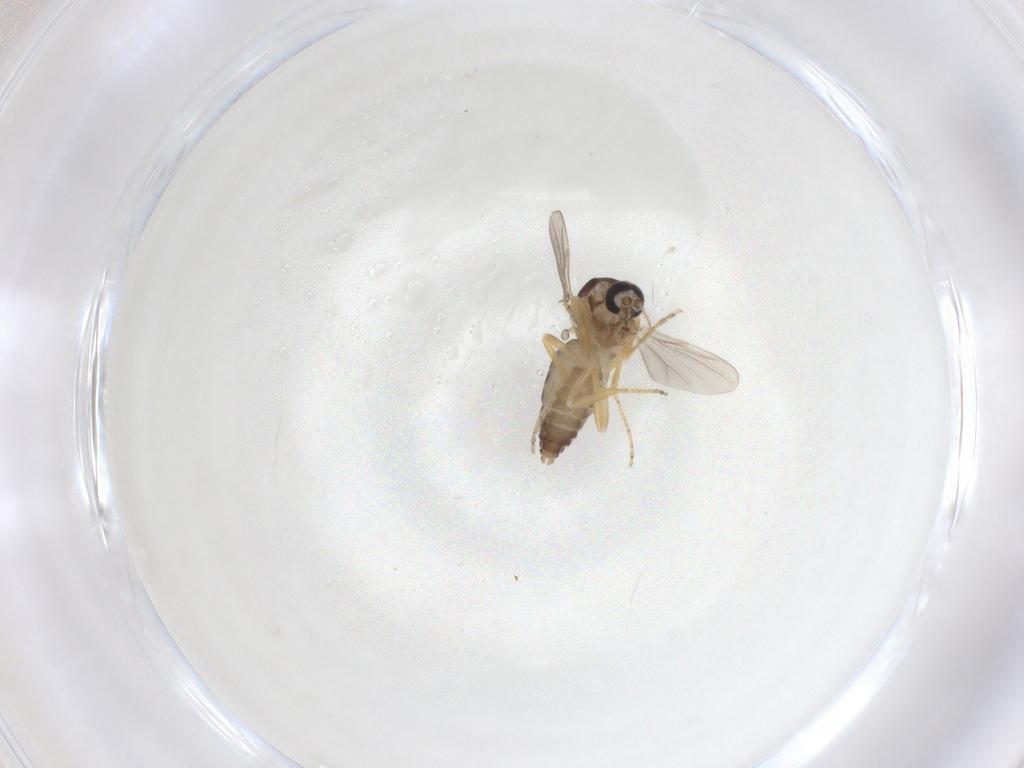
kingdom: Animalia
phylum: Arthropoda
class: Insecta
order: Diptera
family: Ceratopogonidae
